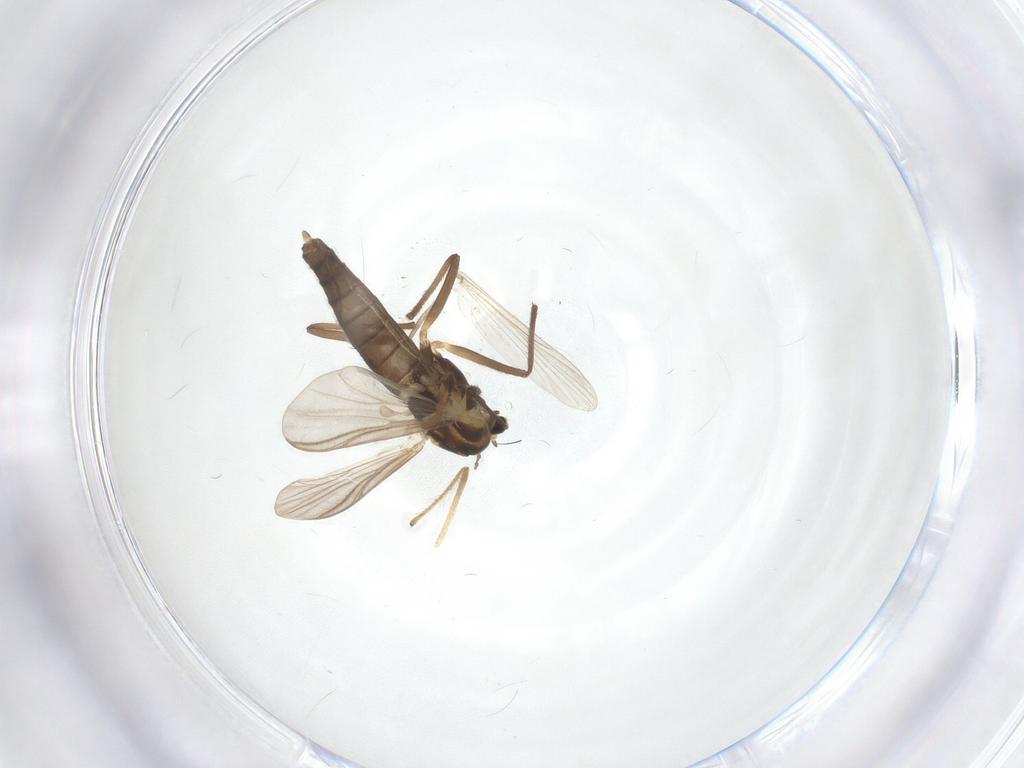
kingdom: Animalia
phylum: Arthropoda
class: Insecta
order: Diptera
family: Chironomidae
